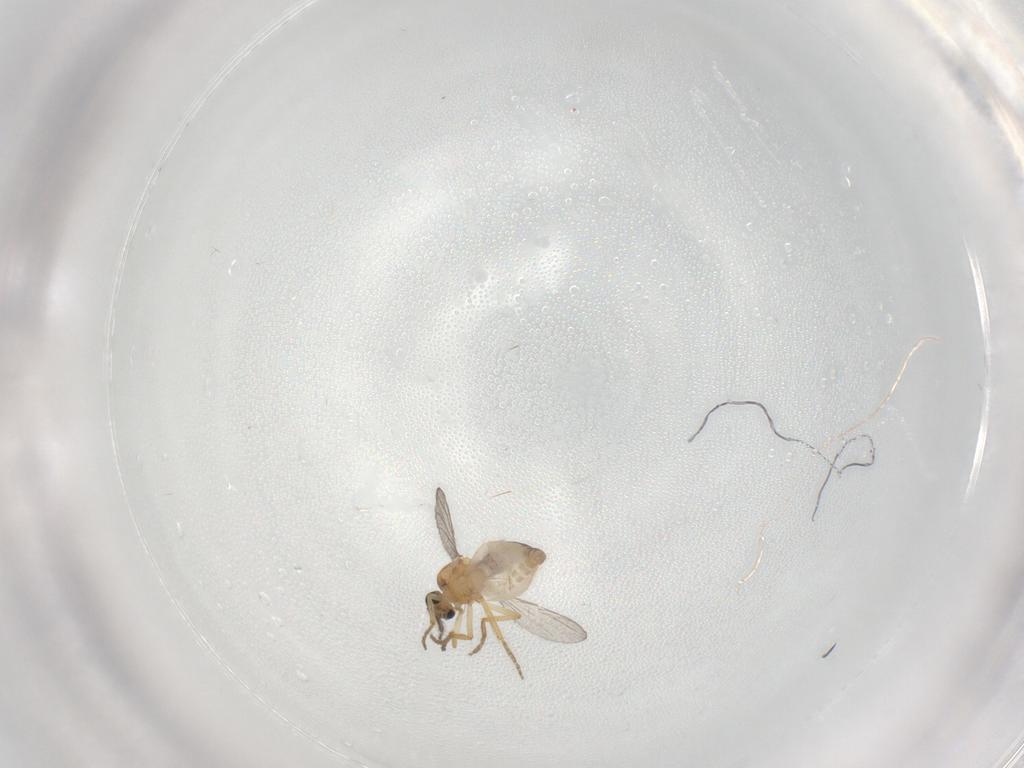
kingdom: Animalia
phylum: Arthropoda
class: Insecta
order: Diptera
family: Ceratopogonidae
